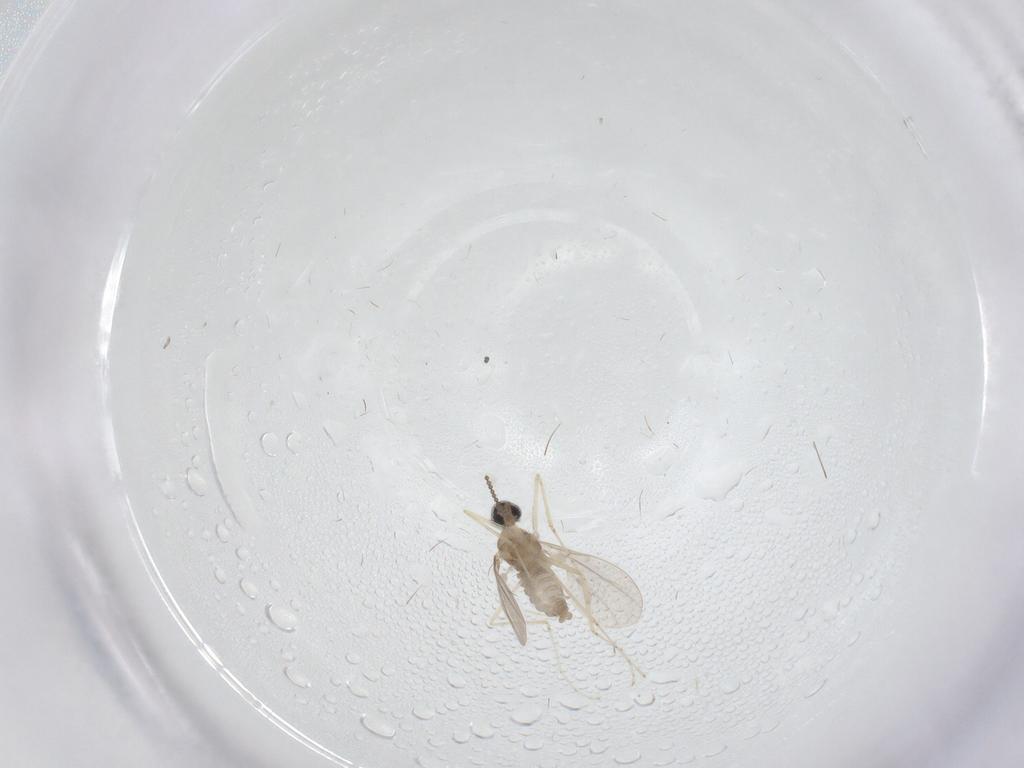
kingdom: Animalia
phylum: Arthropoda
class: Insecta
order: Diptera
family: Cecidomyiidae
